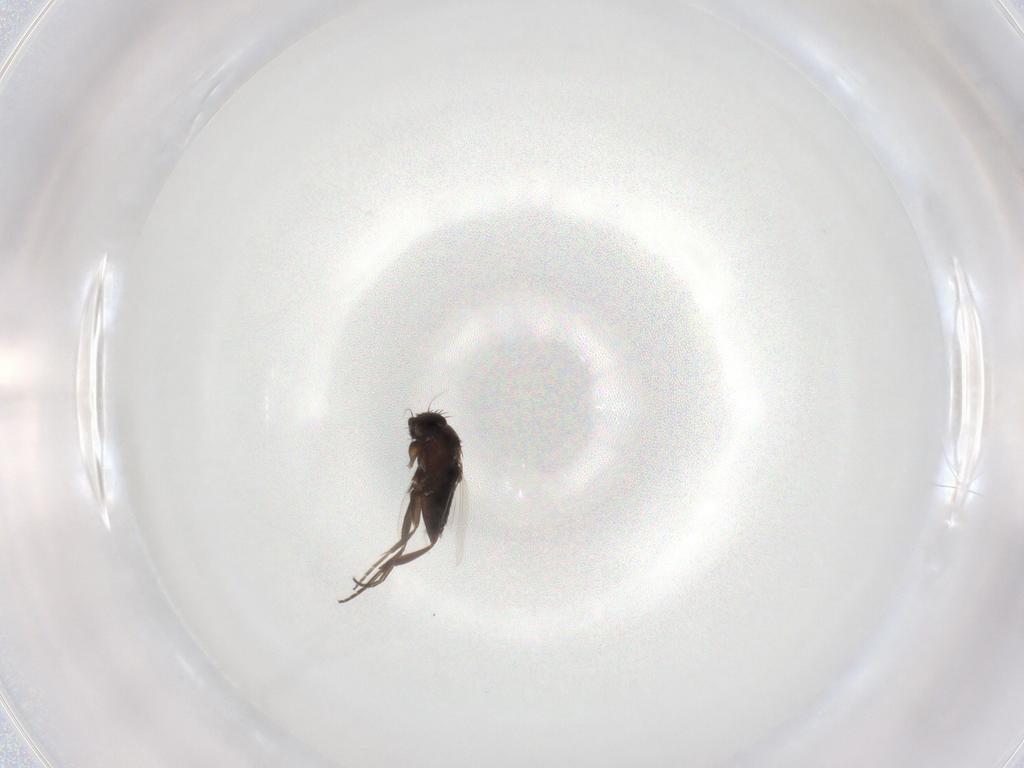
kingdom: Animalia
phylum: Arthropoda
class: Insecta
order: Diptera
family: Phoridae
